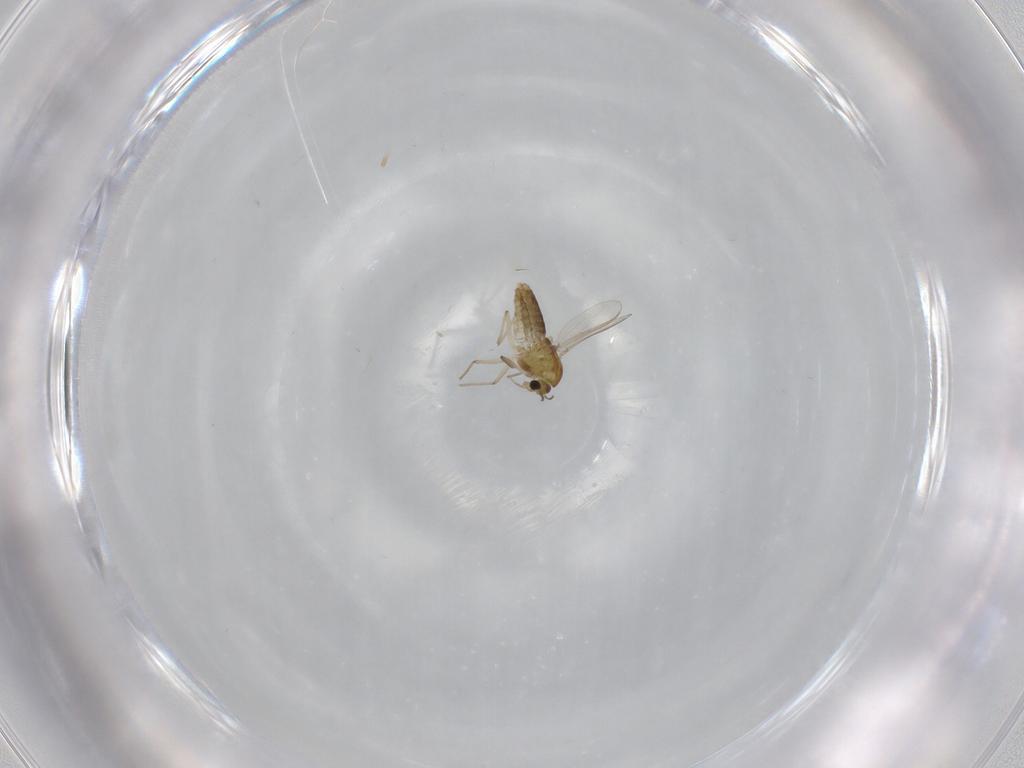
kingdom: Animalia
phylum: Arthropoda
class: Insecta
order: Diptera
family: Chironomidae
